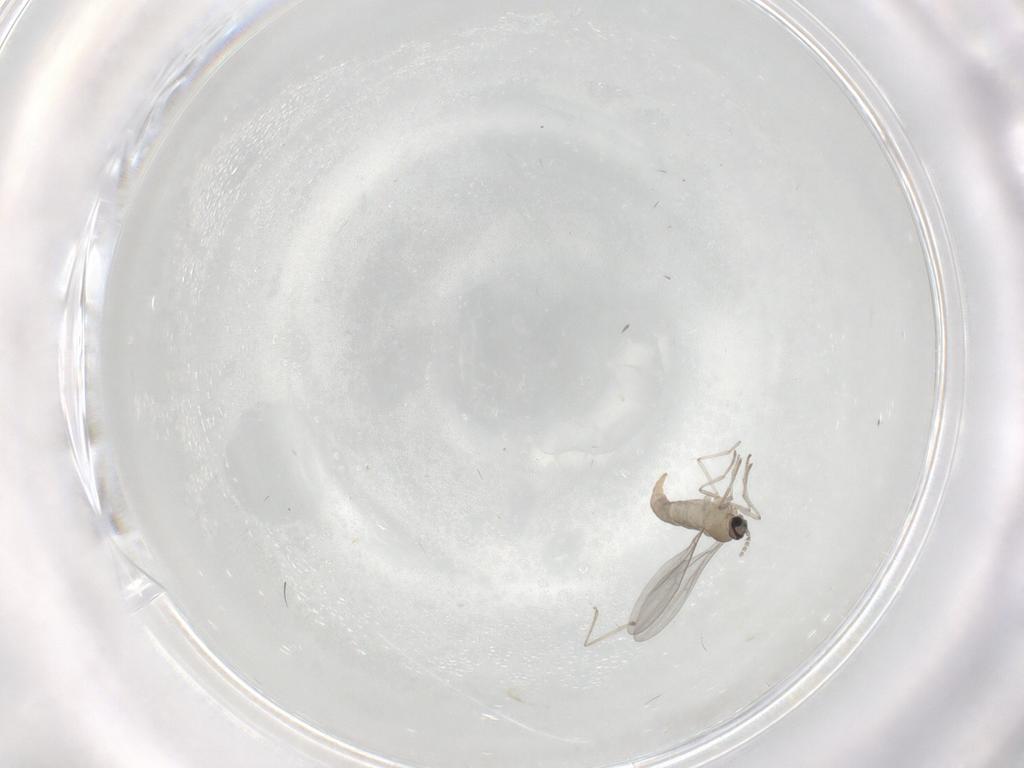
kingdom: Animalia
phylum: Arthropoda
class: Insecta
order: Diptera
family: Cecidomyiidae
